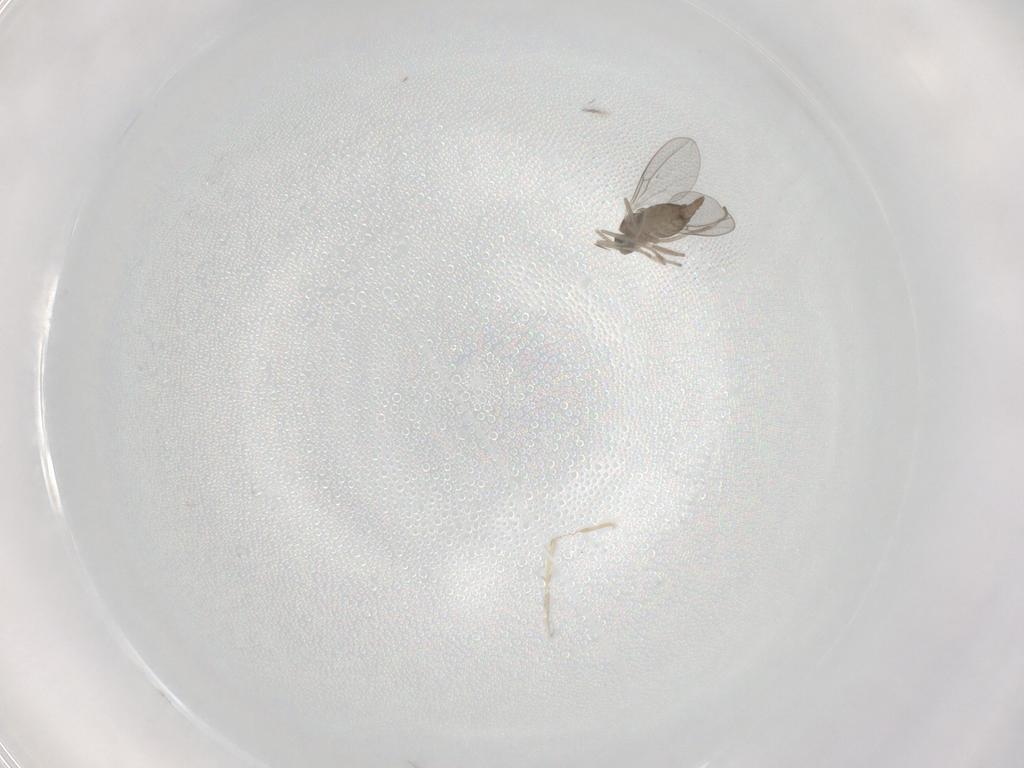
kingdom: Animalia
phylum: Arthropoda
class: Insecta
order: Diptera
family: Cecidomyiidae
